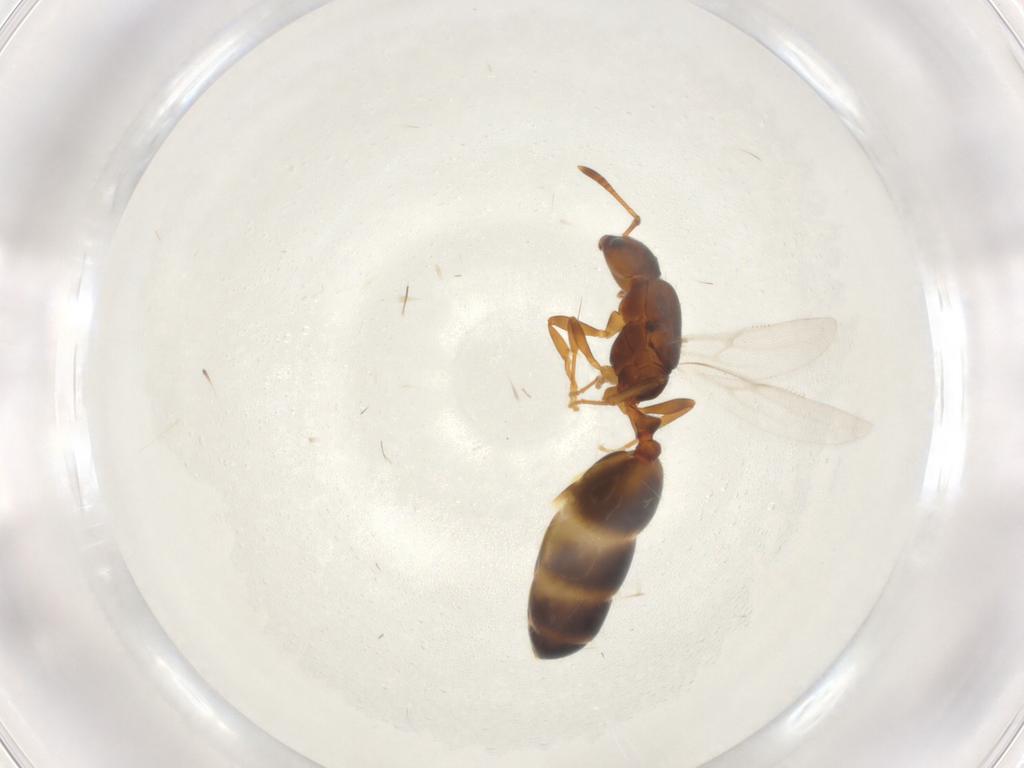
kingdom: Animalia
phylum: Arthropoda
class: Insecta
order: Hymenoptera
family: Formicidae
